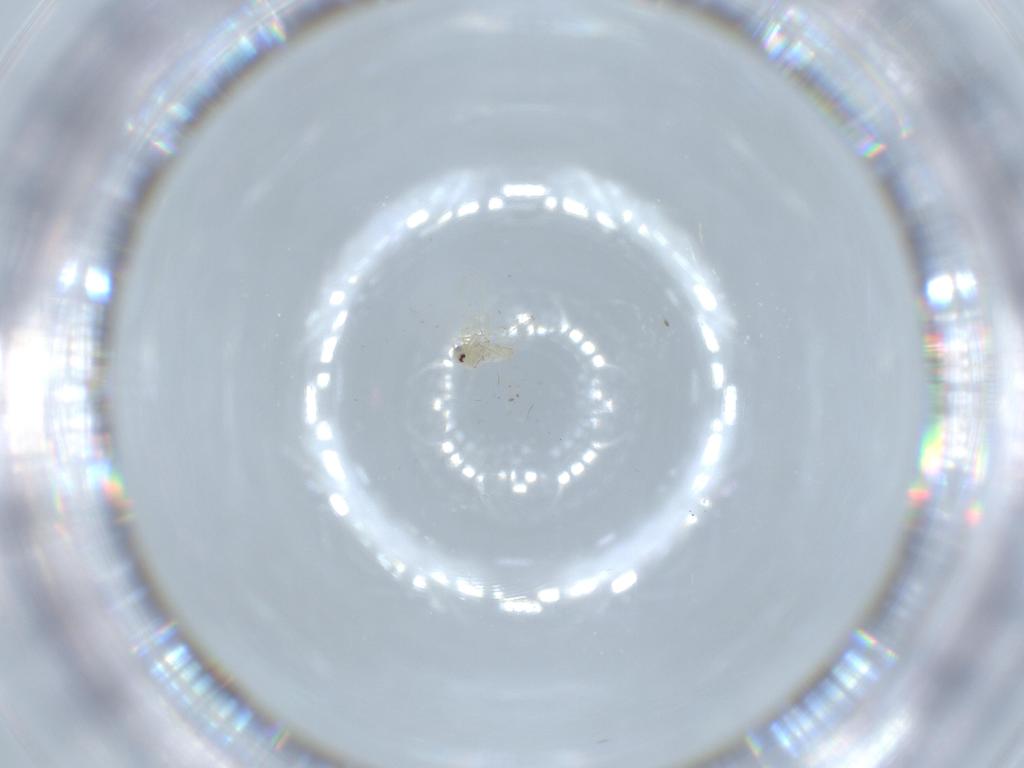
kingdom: Animalia
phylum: Arthropoda
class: Insecta
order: Hemiptera
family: Aleyrodidae
